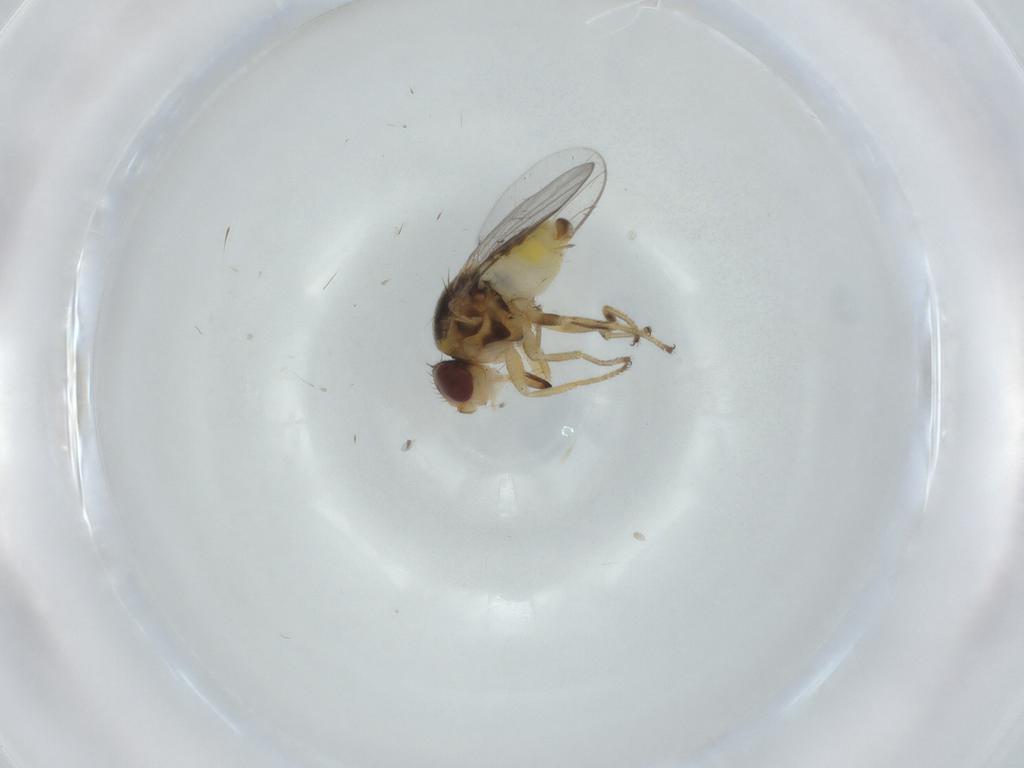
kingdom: Animalia
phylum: Arthropoda
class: Insecta
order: Diptera
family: Chloropidae
